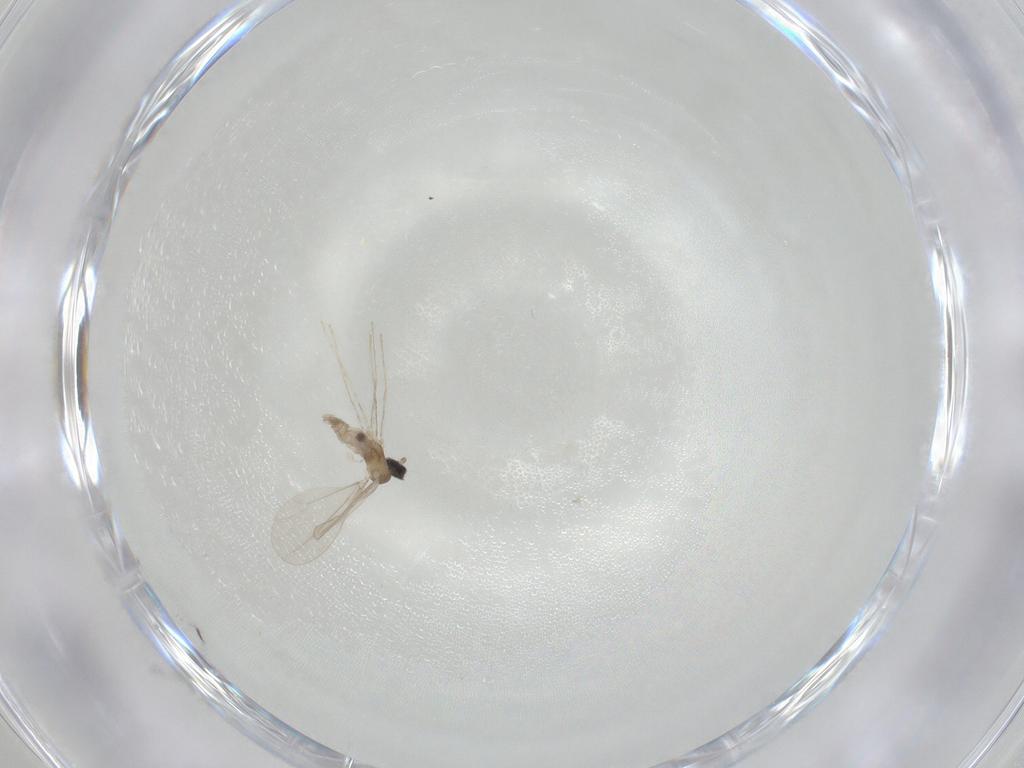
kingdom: Animalia
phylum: Arthropoda
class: Insecta
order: Diptera
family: Cecidomyiidae
